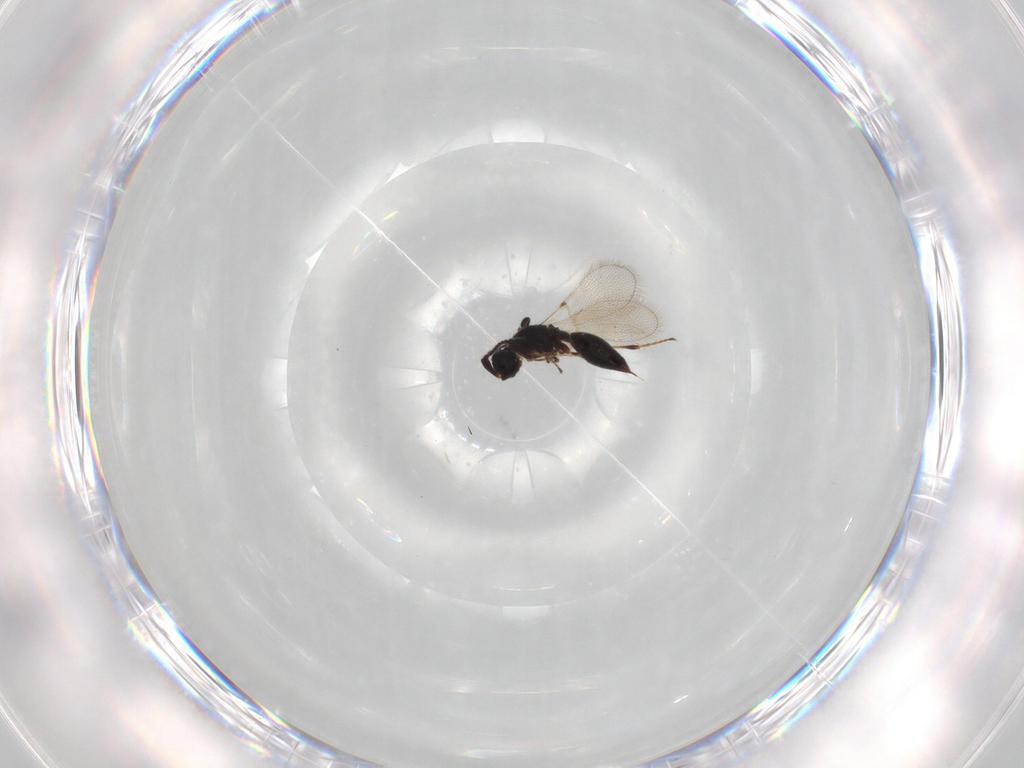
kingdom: Animalia
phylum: Arthropoda
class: Insecta
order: Hymenoptera
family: Diapriidae
